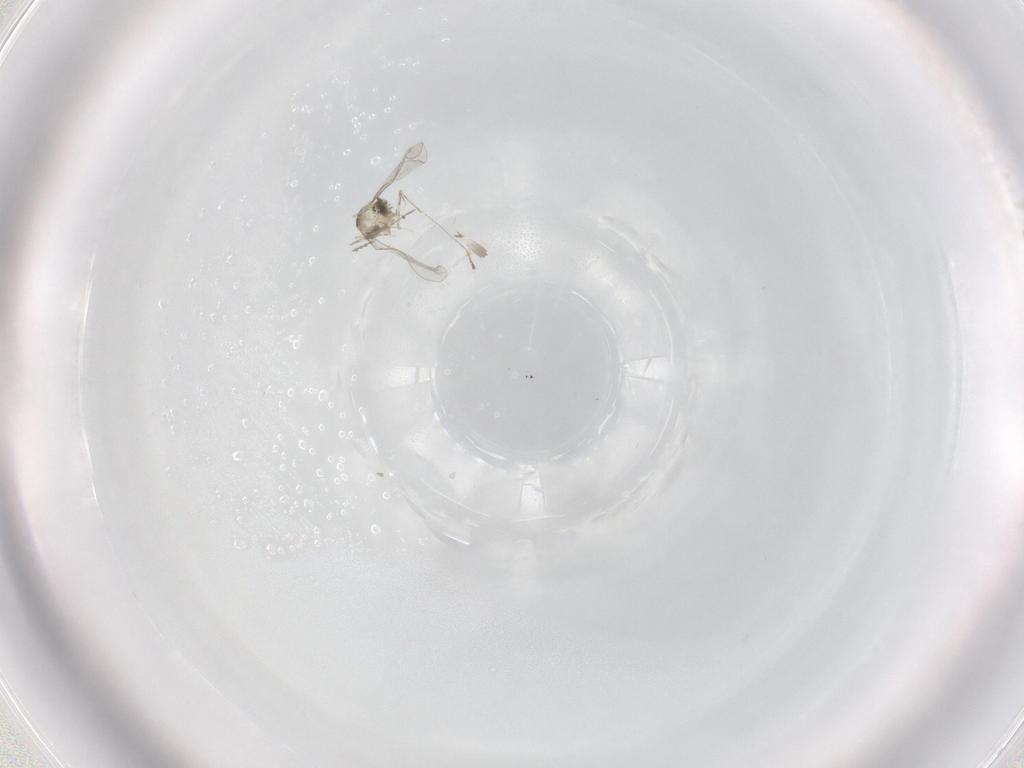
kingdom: Animalia
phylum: Arthropoda
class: Insecta
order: Diptera
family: Cecidomyiidae
